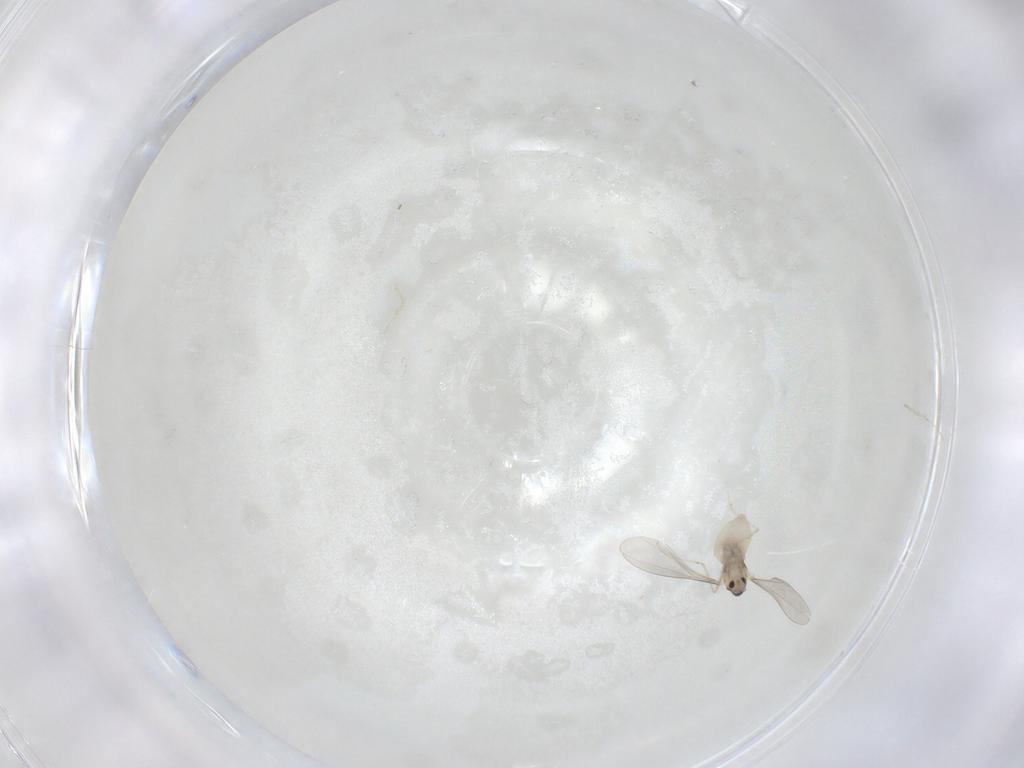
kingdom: Animalia
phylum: Arthropoda
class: Insecta
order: Diptera
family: Cecidomyiidae
